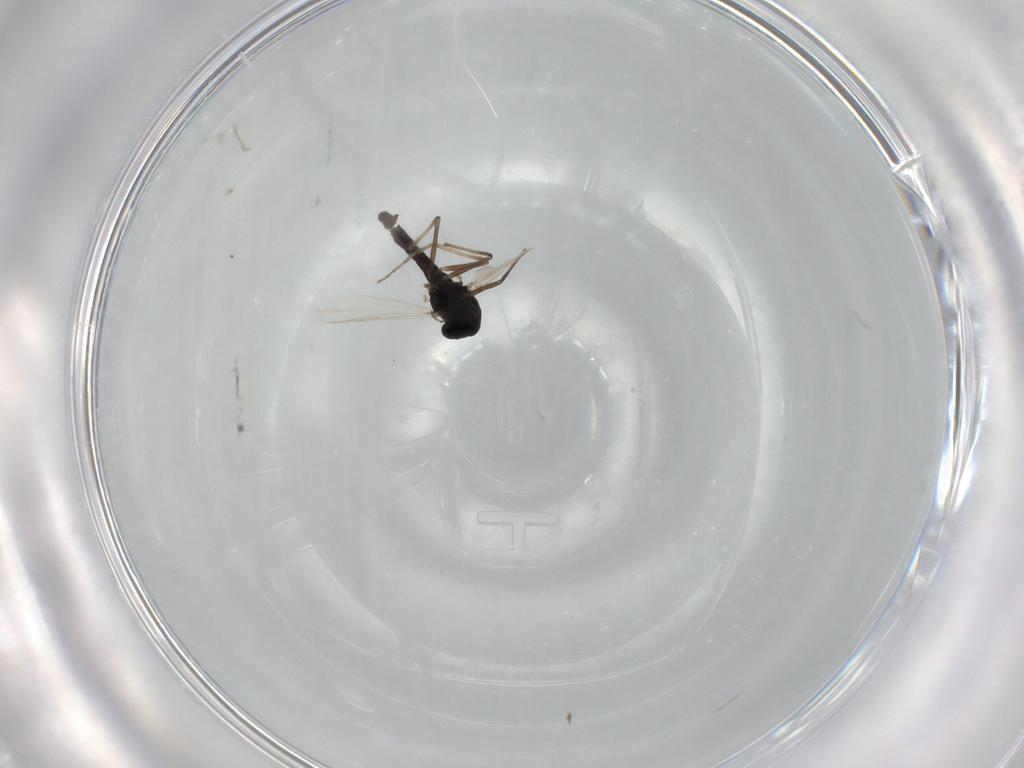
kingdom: Animalia
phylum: Arthropoda
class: Insecta
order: Diptera
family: Chironomidae
